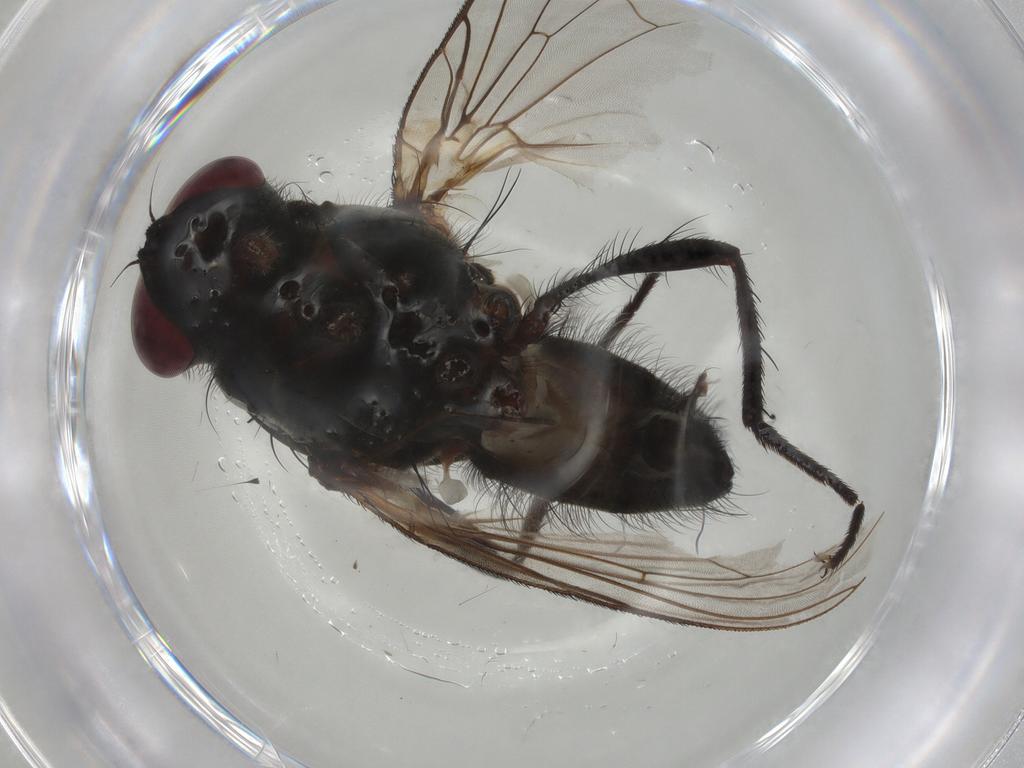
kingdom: Animalia
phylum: Arthropoda
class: Insecta
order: Diptera
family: Anthomyiidae
